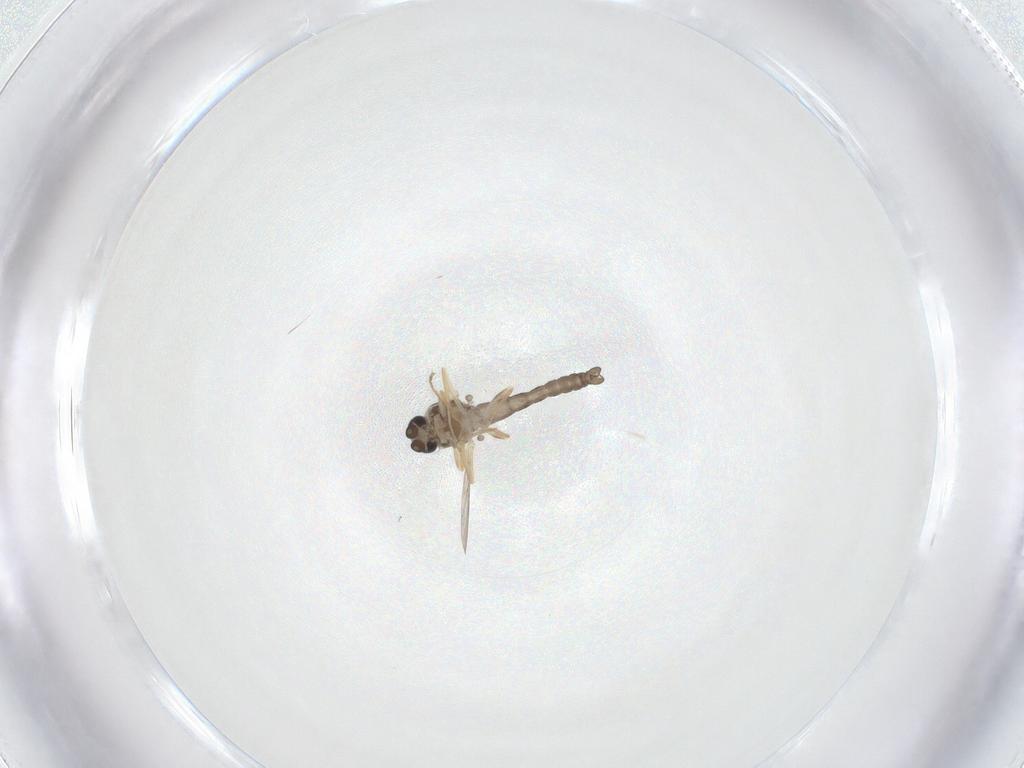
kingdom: Animalia
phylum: Arthropoda
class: Insecta
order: Diptera
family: Ceratopogonidae
